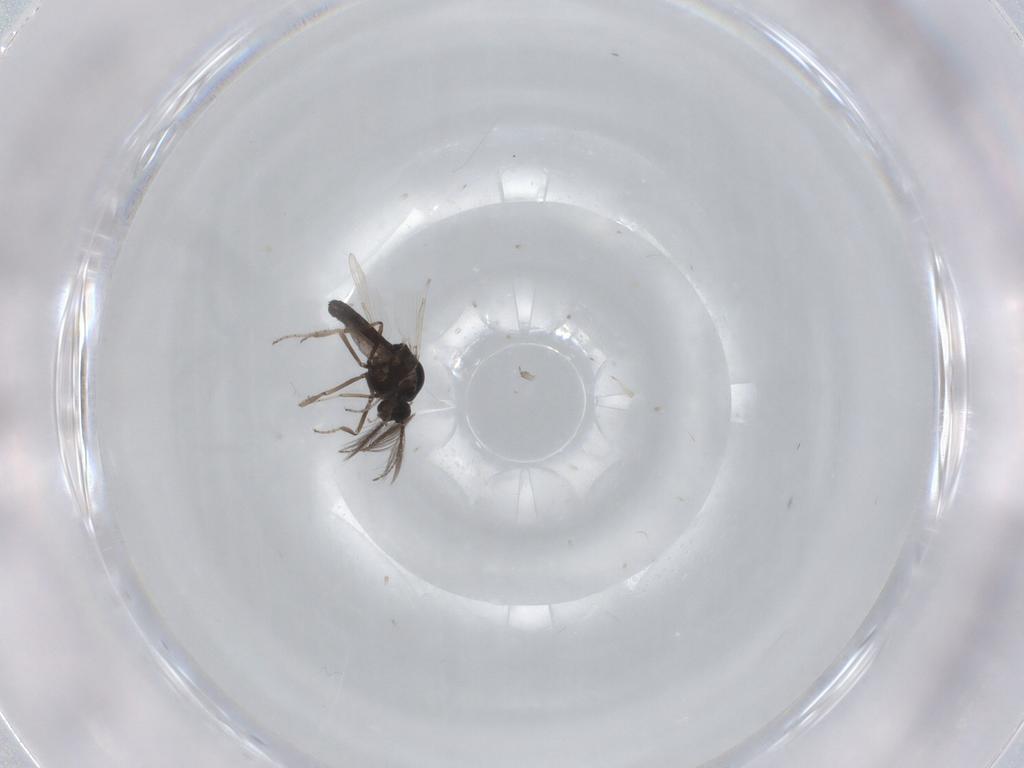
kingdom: Animalia
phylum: Arthropoda
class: Insecta
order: Diptera
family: Ceratopogonidae
